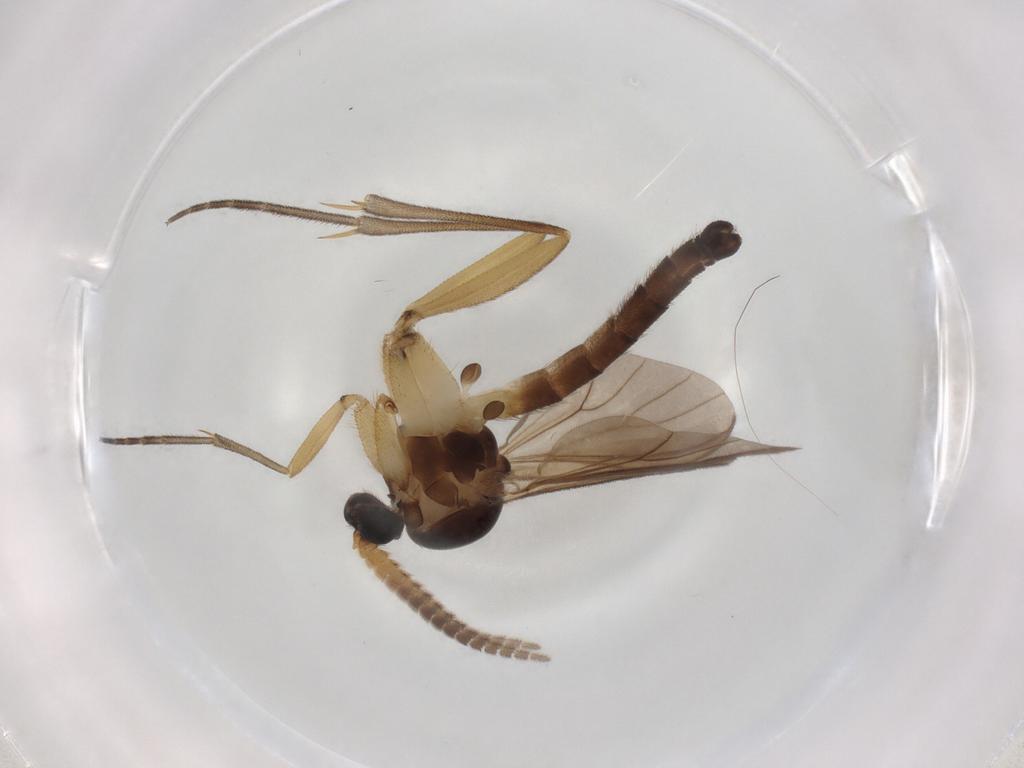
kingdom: Animalia
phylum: Arthropoda
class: Insecta
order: Diptera
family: Mycetophilidae
